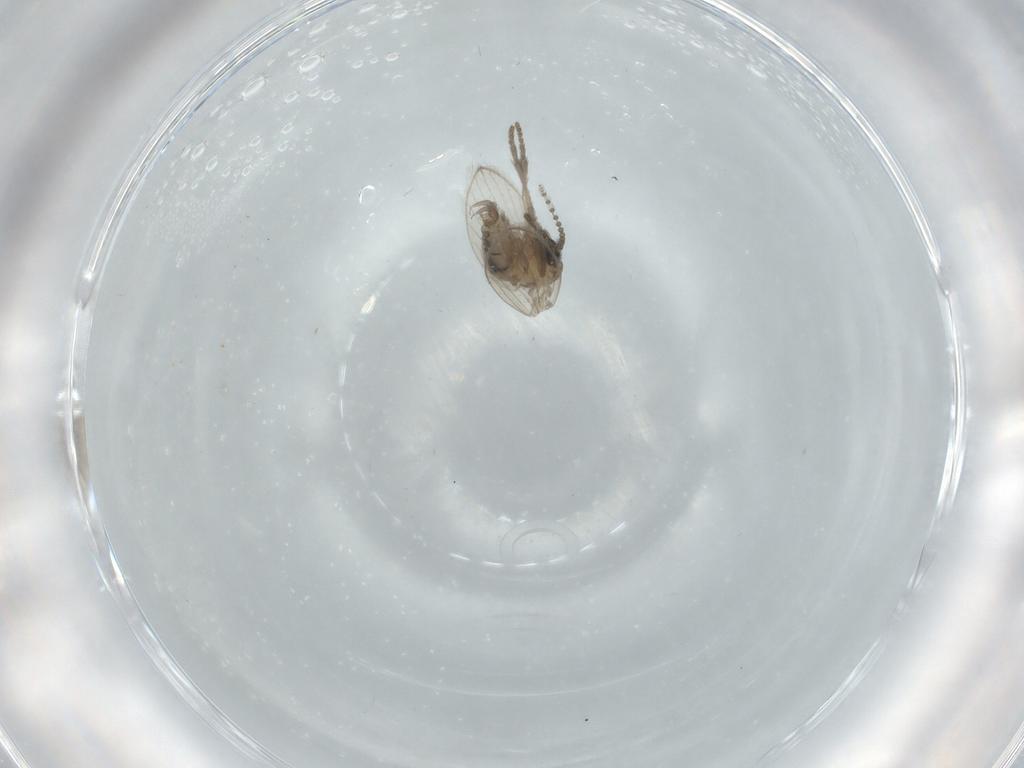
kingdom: Animalia
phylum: Arthropoda
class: Insecta
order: Diptera
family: Psychodidae
